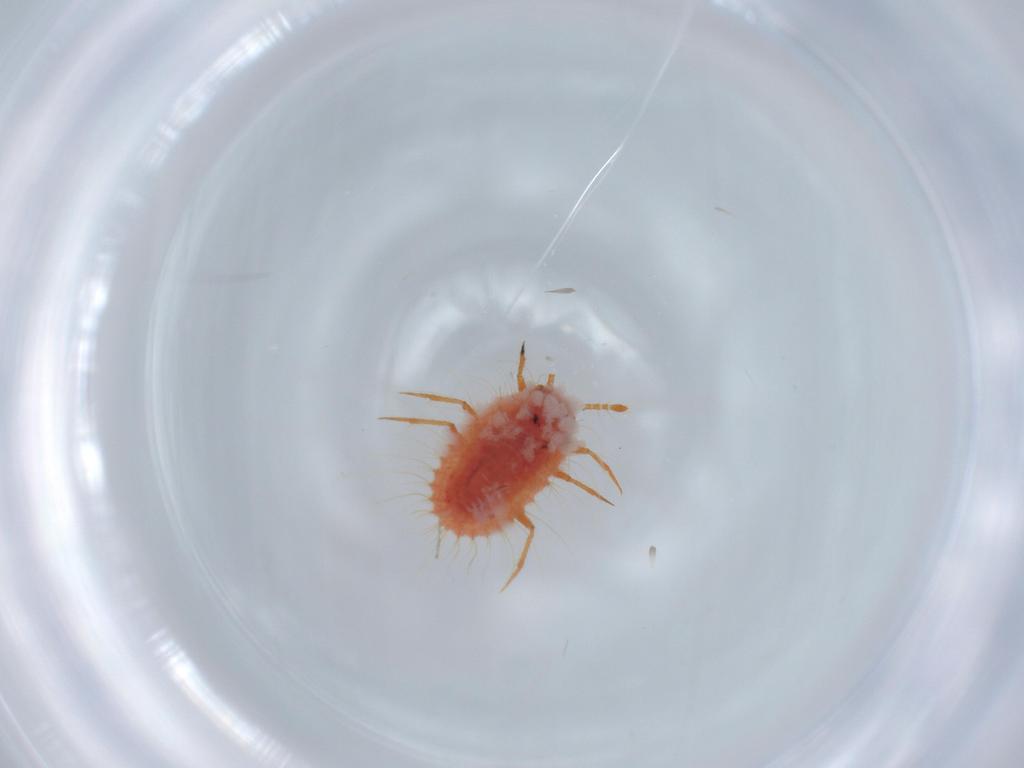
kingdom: Animalia
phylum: Arthropoda
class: Insecta
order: Hemiptera
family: Coccoidea_incertae_sedis
